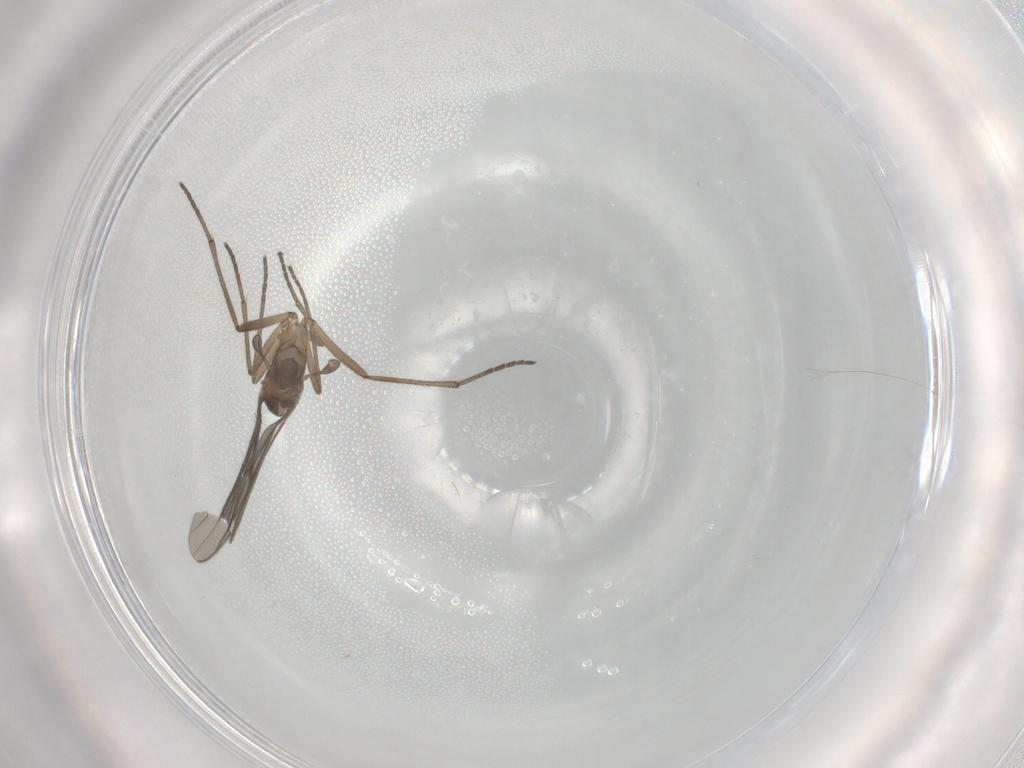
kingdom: Animalia
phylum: Arthropoda
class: Insecta
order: Diptera
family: Sciaridae
